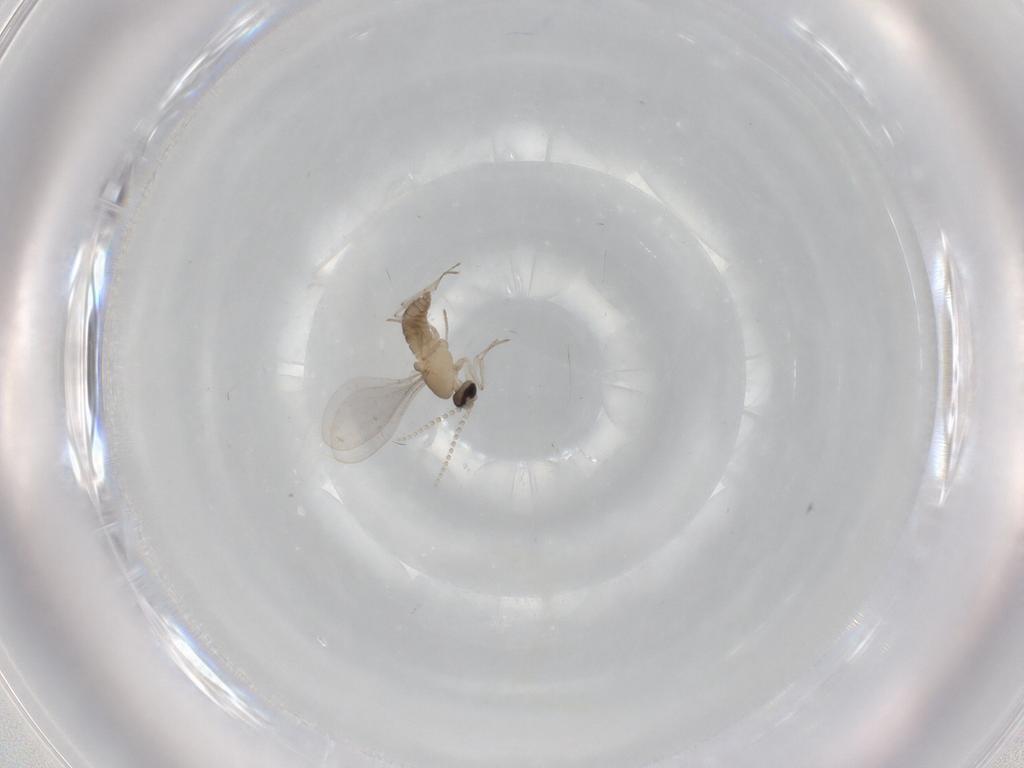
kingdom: Animalia
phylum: Arthropoda
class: Insecta
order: Diptera
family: Cecidomyiidae
